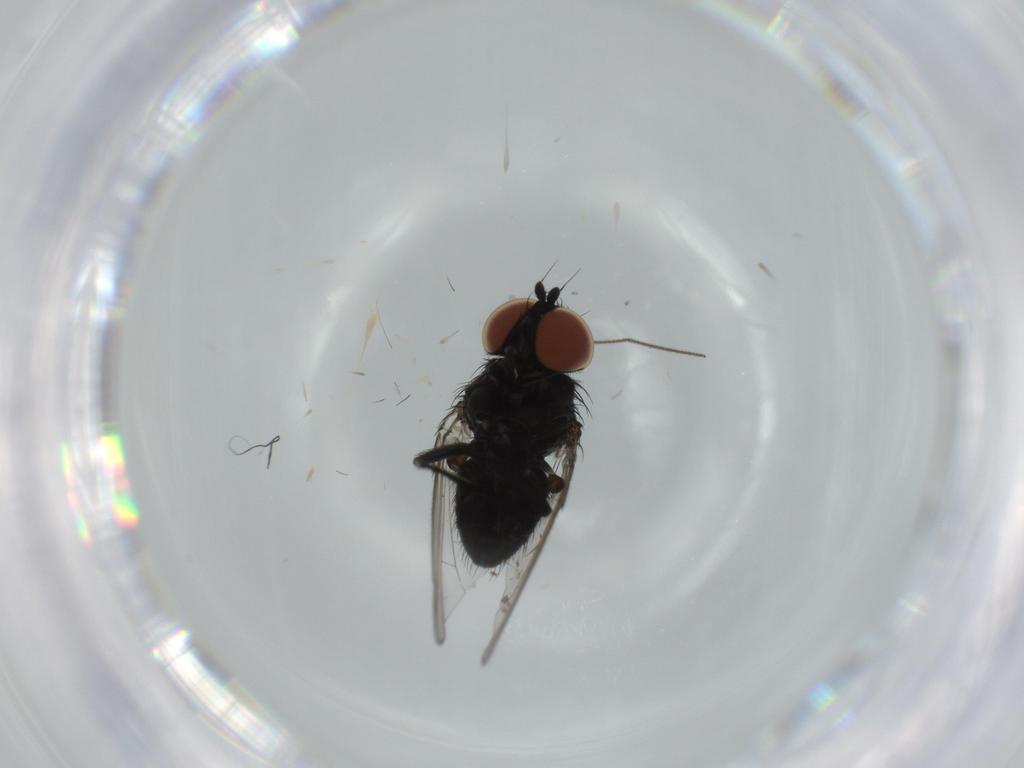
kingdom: Animalia
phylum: Arthropoda
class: Insecta
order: Diptera
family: Milichiidae
